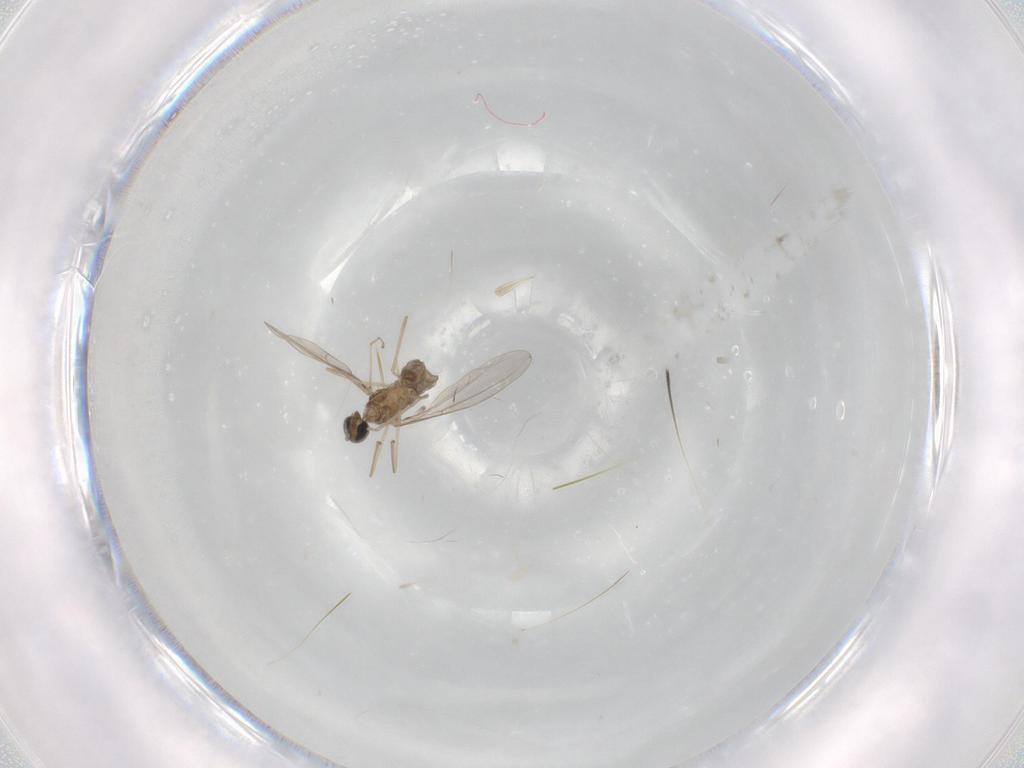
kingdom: Animalia
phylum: Arthropoda
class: Insecta
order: Diptera
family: Cecidomyiidae
